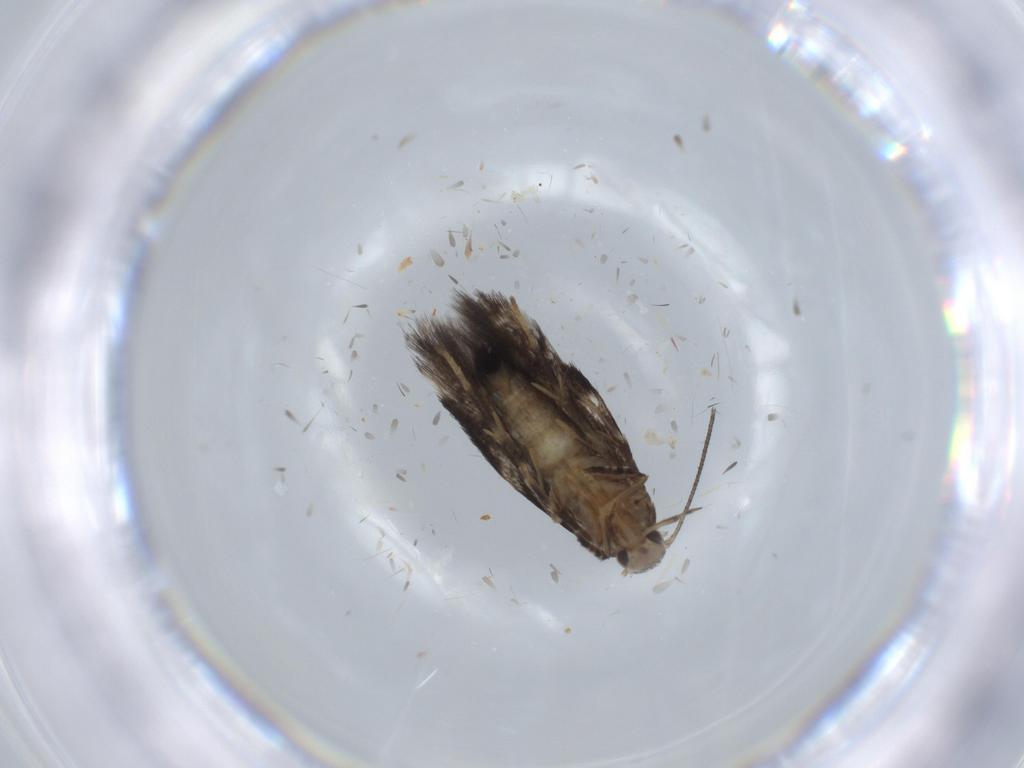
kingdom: Animalia
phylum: Arthropoda
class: Insecta
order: Lepidoptera
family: Cosmopterigidae
